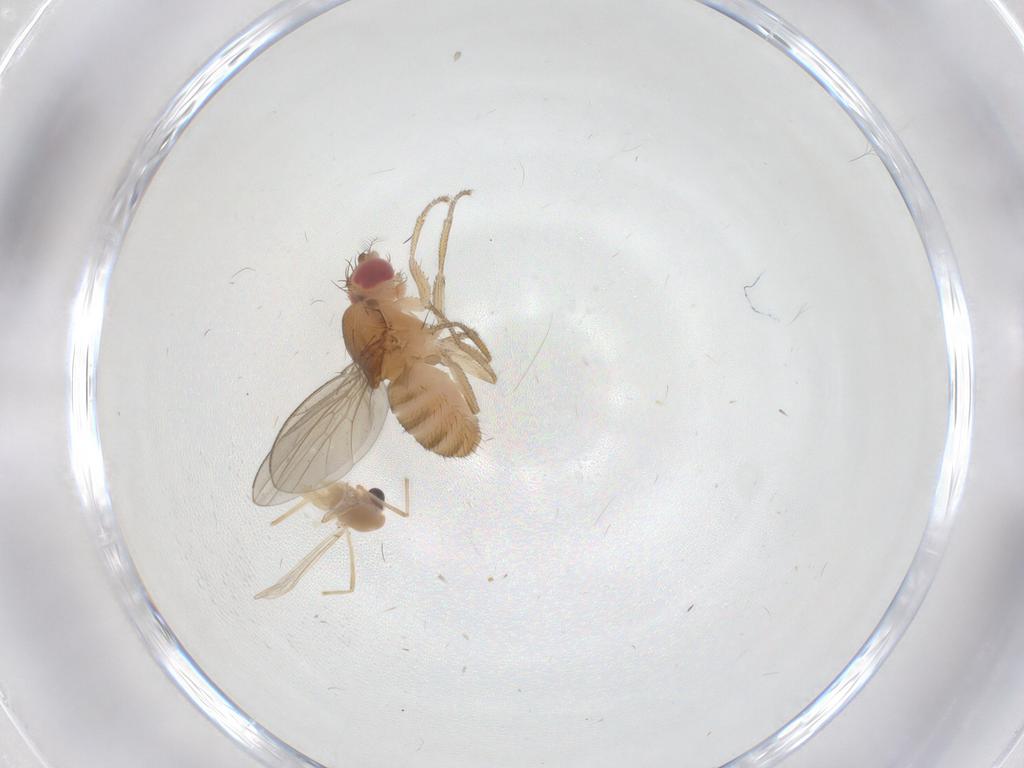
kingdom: Animalia
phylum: Arthropoda
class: Insecta
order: Diptera
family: Drosophilidae
